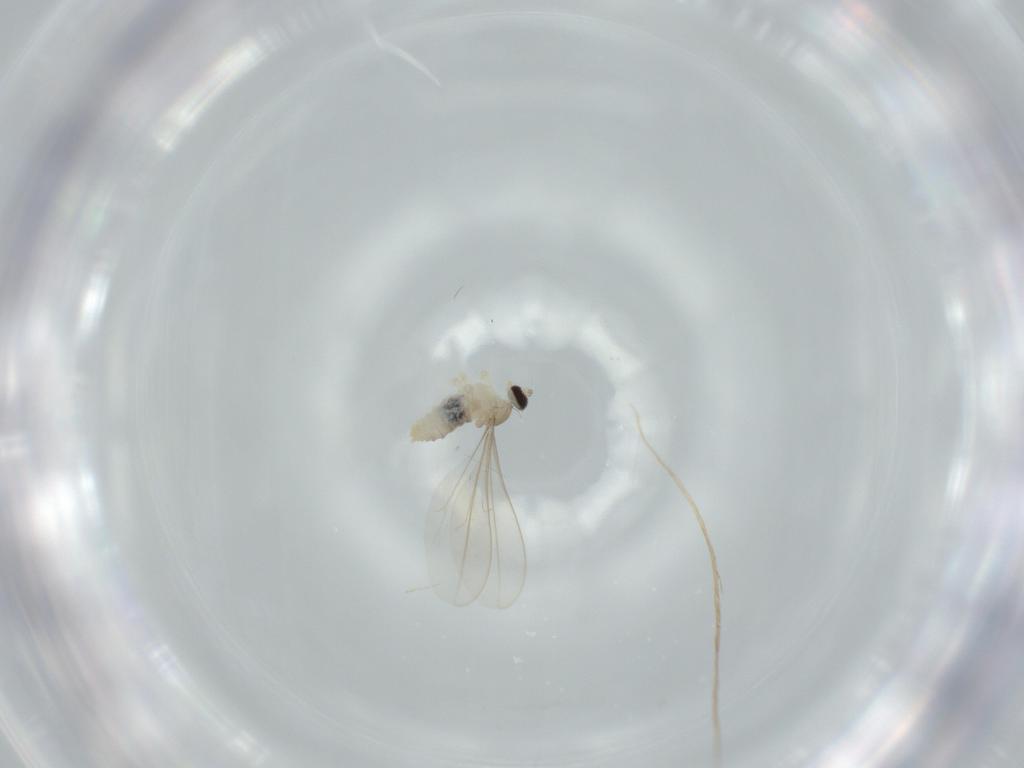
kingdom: Animalia
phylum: Arthropoda
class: Insecta
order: Diptera
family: Cecidomyiidae
